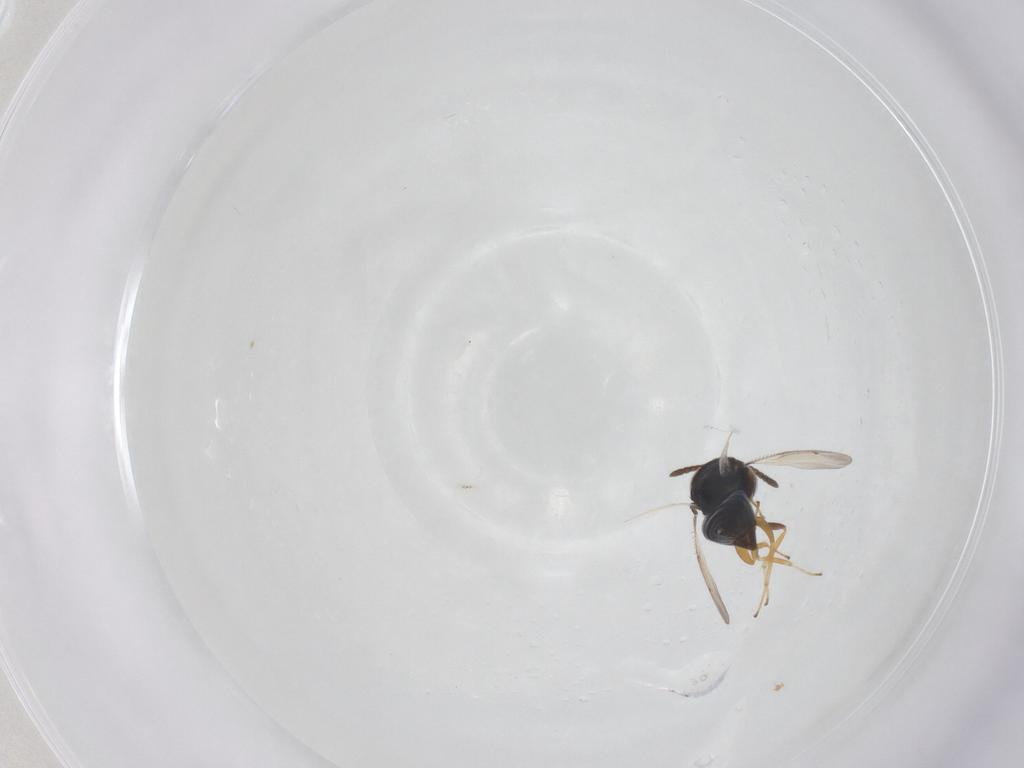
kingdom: Animalia
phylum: Arthropoda
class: Insecta
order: Hymenoptera
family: Pteromalidae
